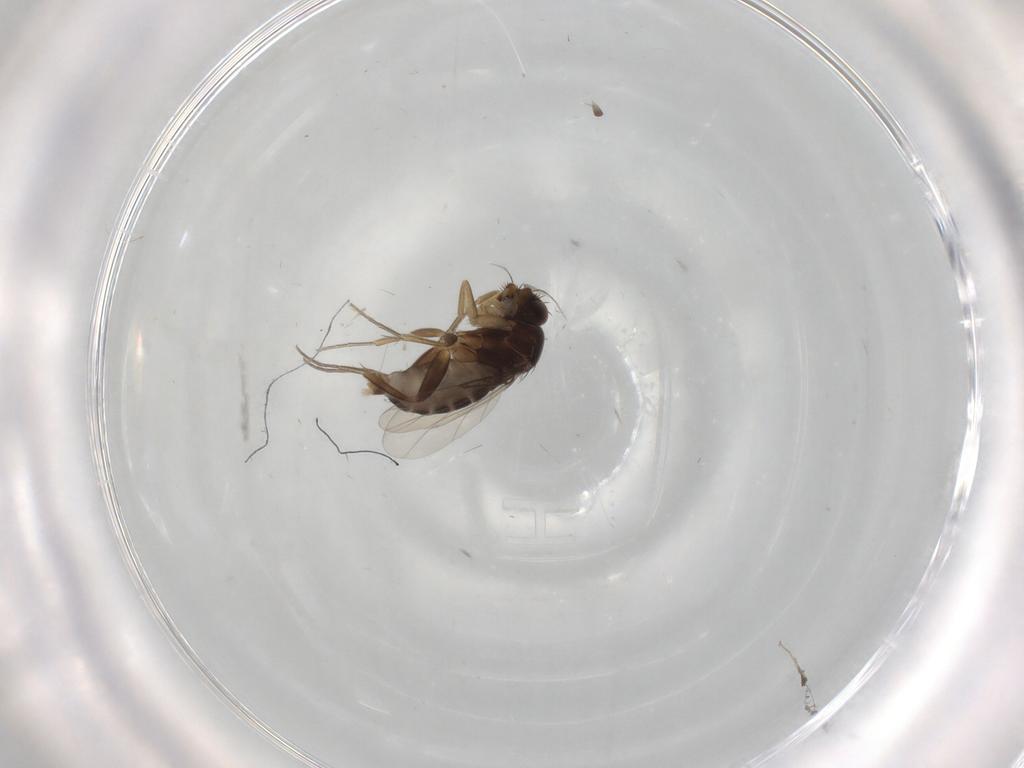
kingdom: Animalia
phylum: Arthropoda
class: Insecta
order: Diptera
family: Phoridae
